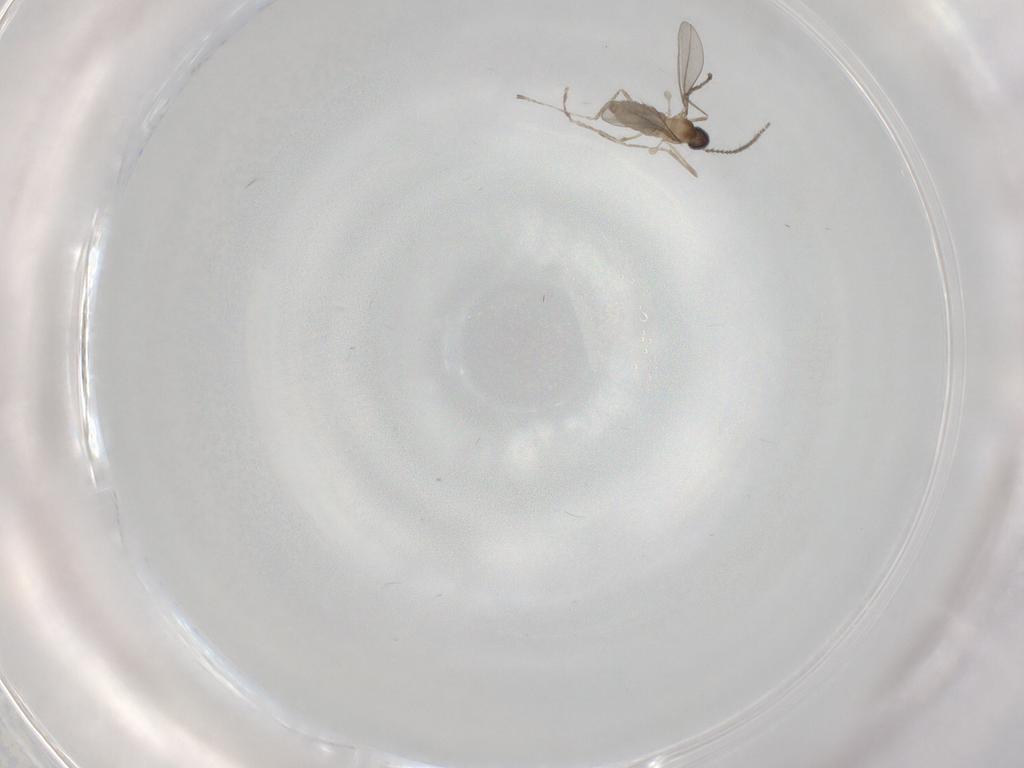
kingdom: Animalia
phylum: Arthropoda
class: Insecta
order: Diptera
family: Cecidomyiidae
